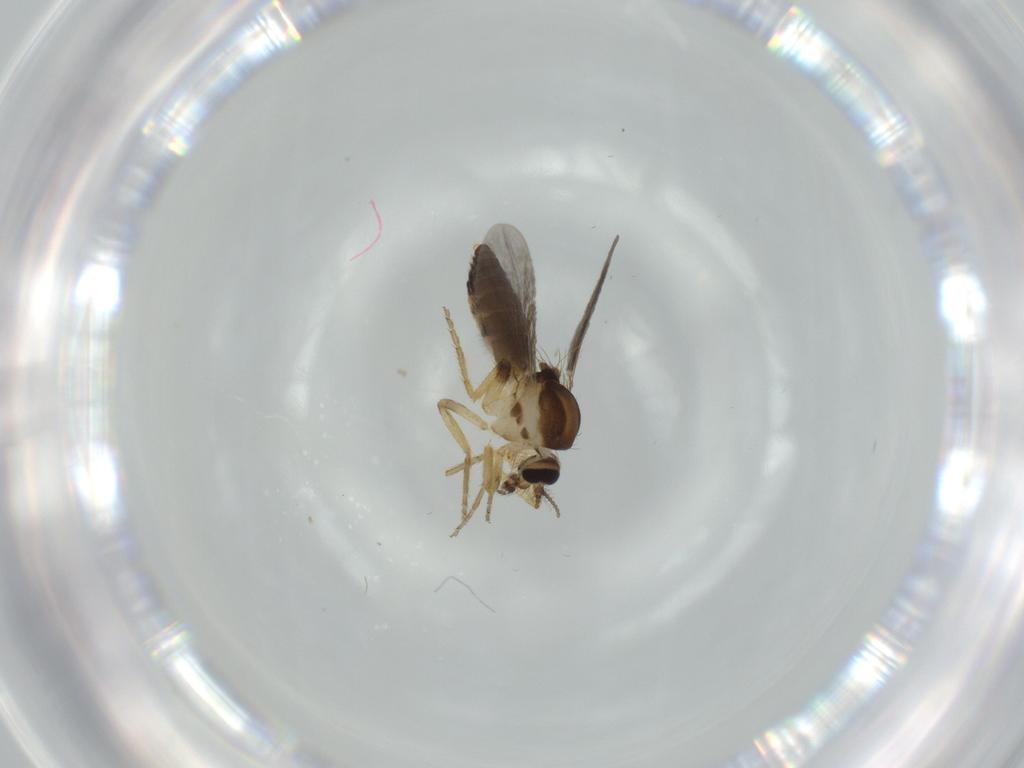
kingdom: Animalia
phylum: Arthropoda
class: Insecta
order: Diptera
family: Ceratopogonidae
